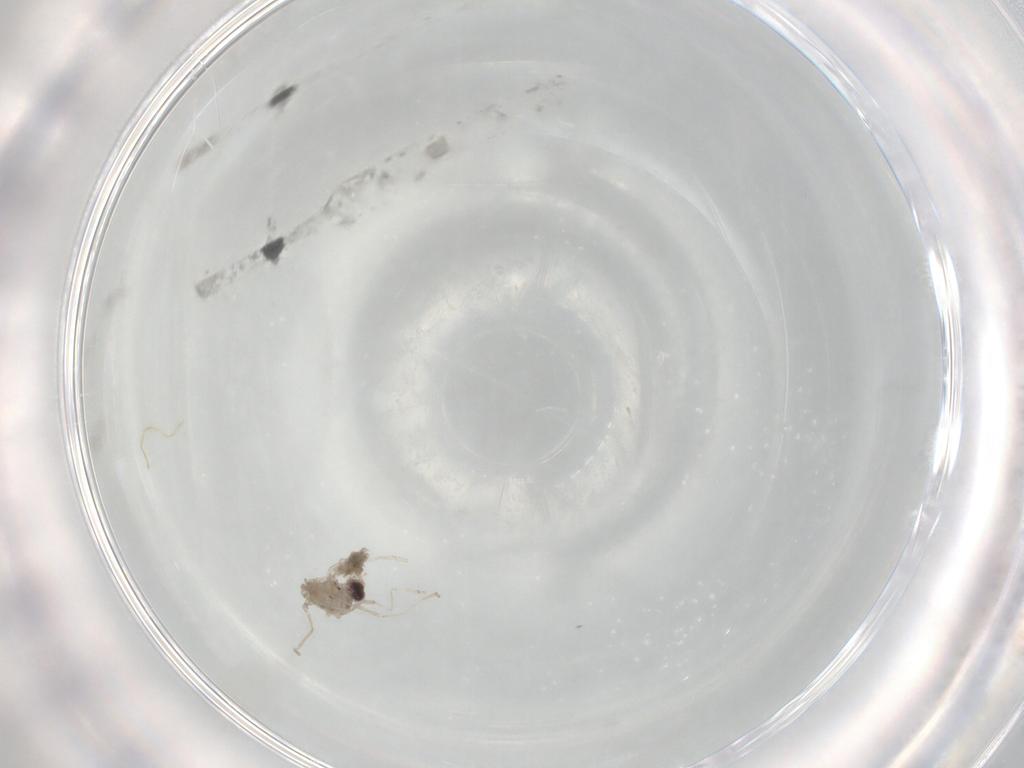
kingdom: Animalia
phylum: Arthropoda
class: Insecta
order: Diptera
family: Cecidomyiidae
